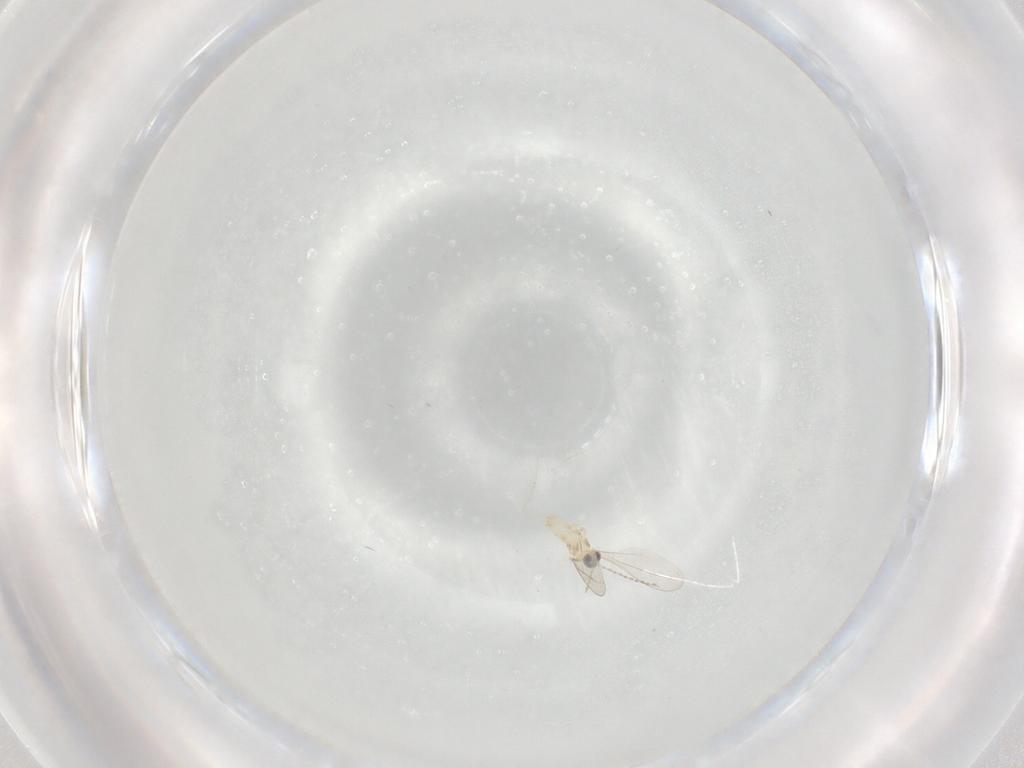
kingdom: Animalia
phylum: Arthropoda
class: Insecta
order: Diptera
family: Cecidomyiidae
